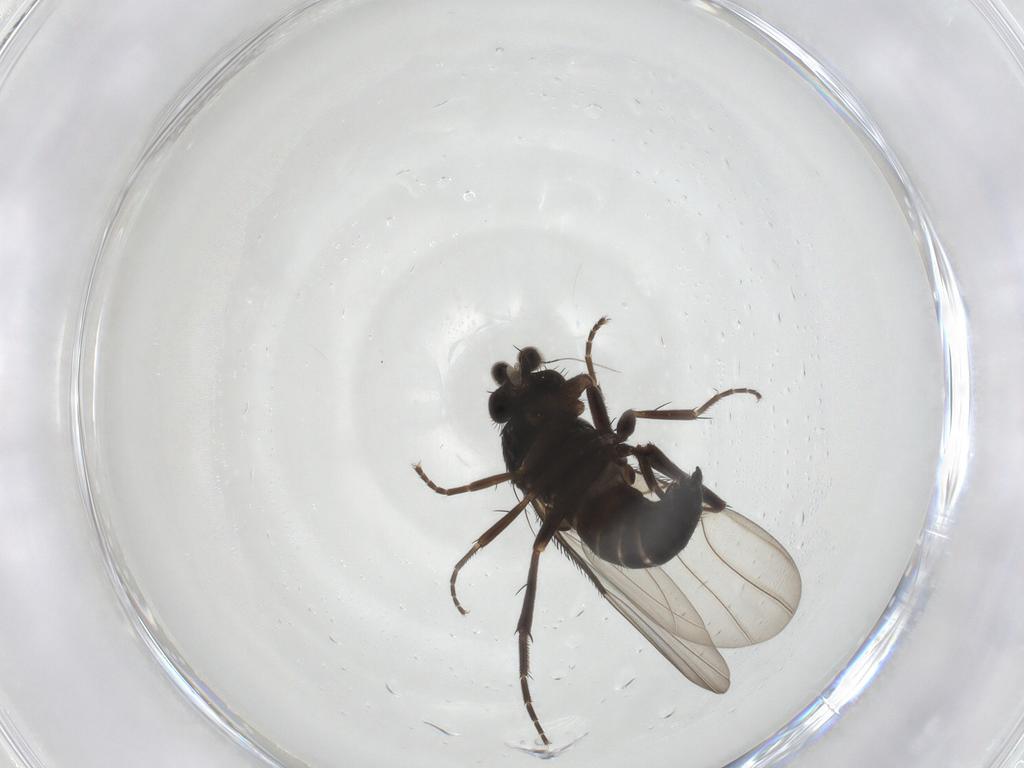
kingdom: Animalia
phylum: Arthropoda
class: Insecta
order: Diptera
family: Phoridae
